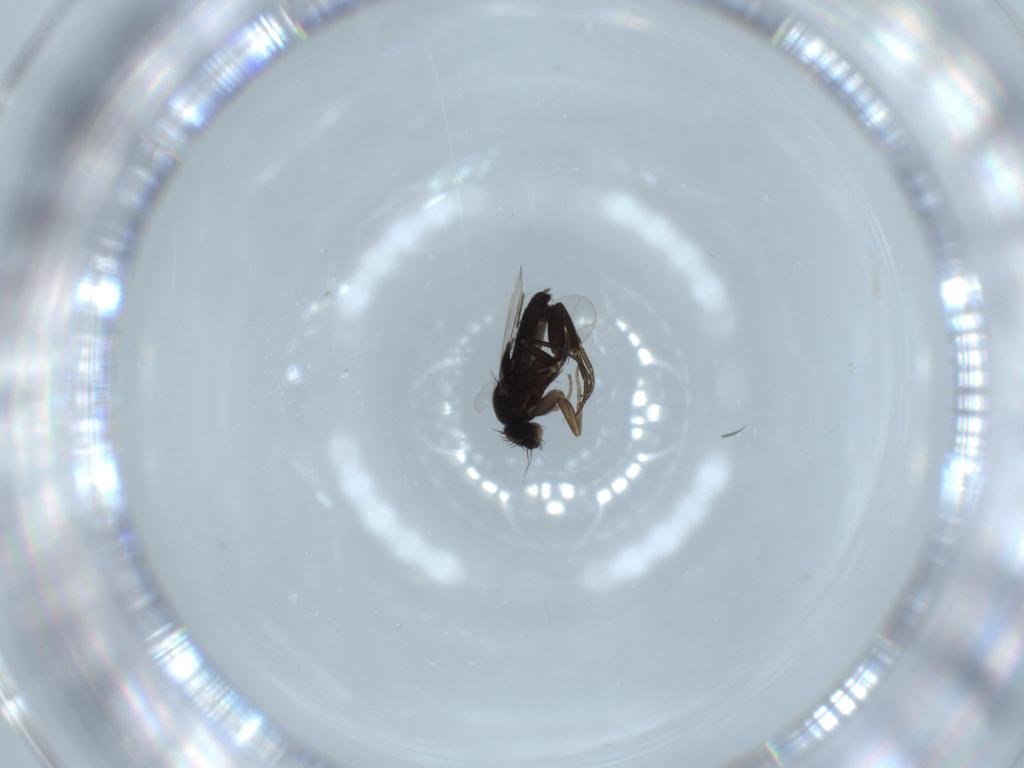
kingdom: Animalia
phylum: Arthropoda
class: Insecta
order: Diptera
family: Phoridae
